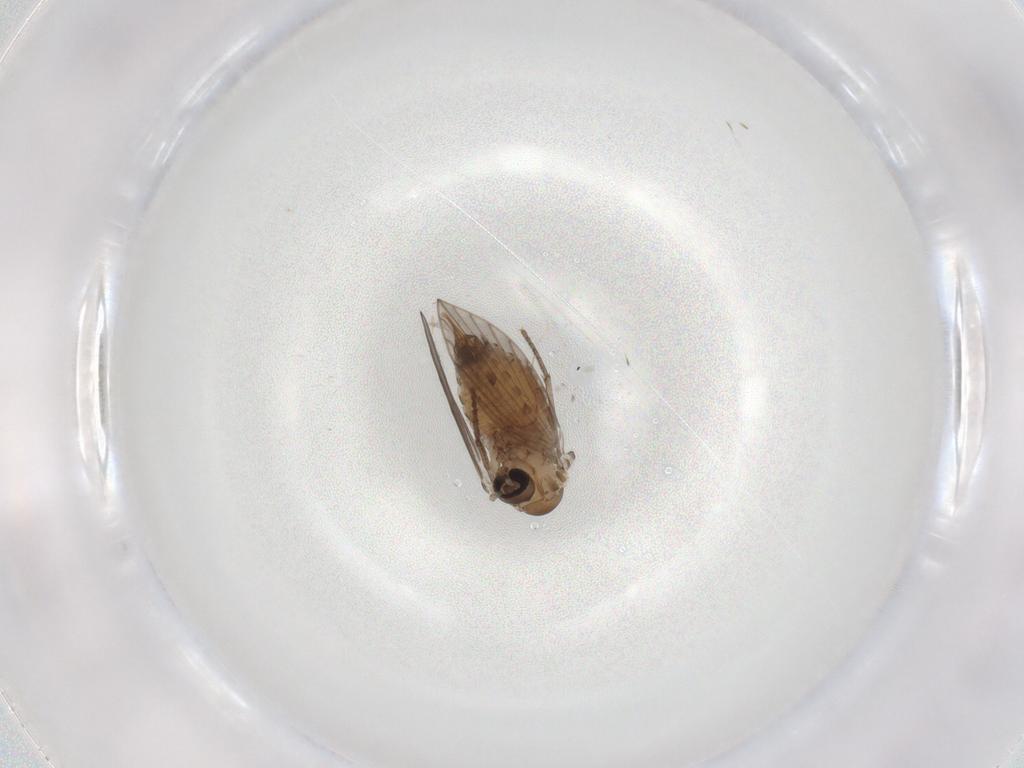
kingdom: Animalia
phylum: Arthropoda
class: Insecta
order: Diptera
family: Psychodidae
